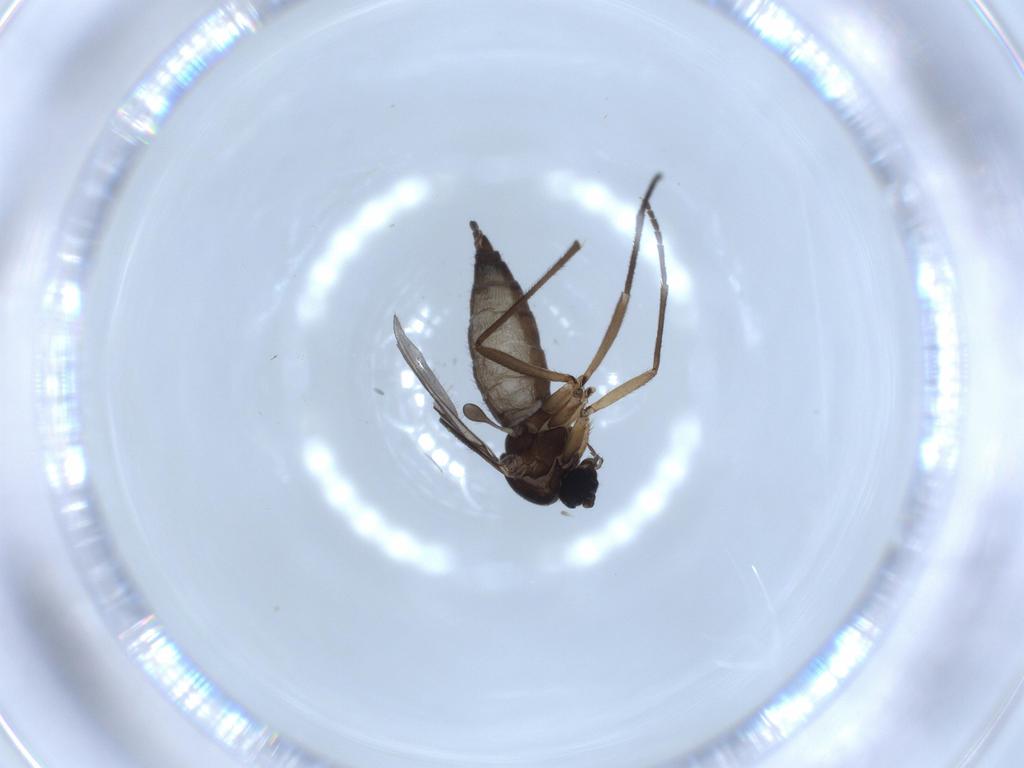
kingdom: Animalia
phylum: Arthropoda
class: Insecta
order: Diptera
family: Sciaridae
